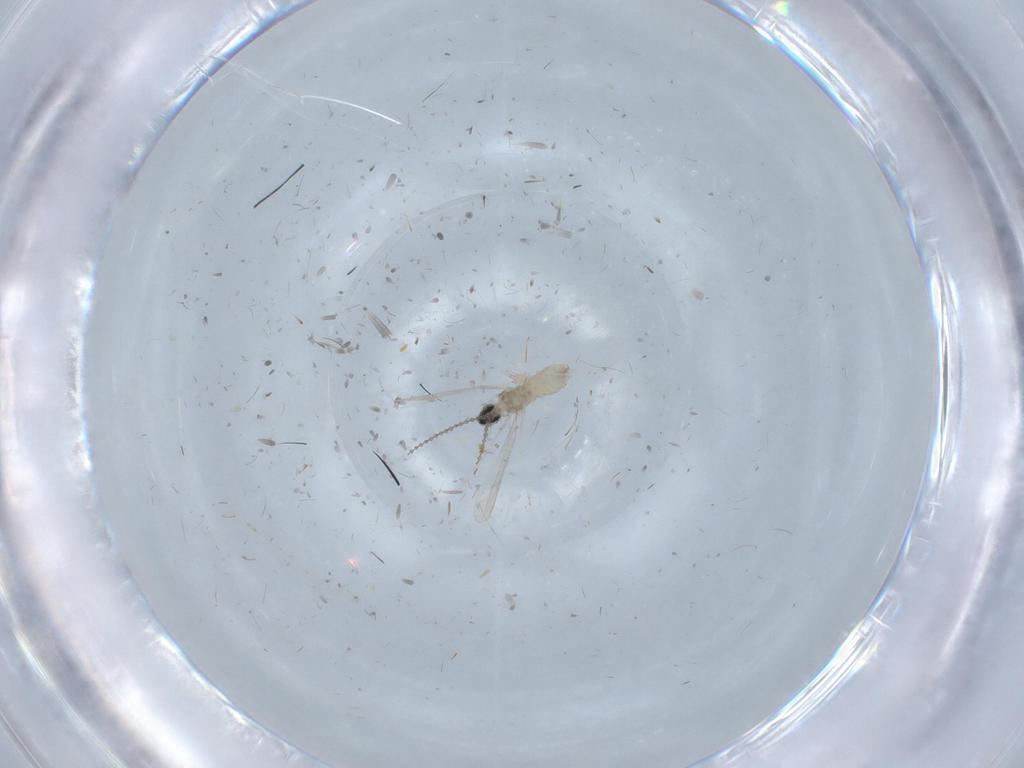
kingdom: Animalia
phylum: Arthropoda
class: Insecta
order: Diptera
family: Cecidomyiidae
